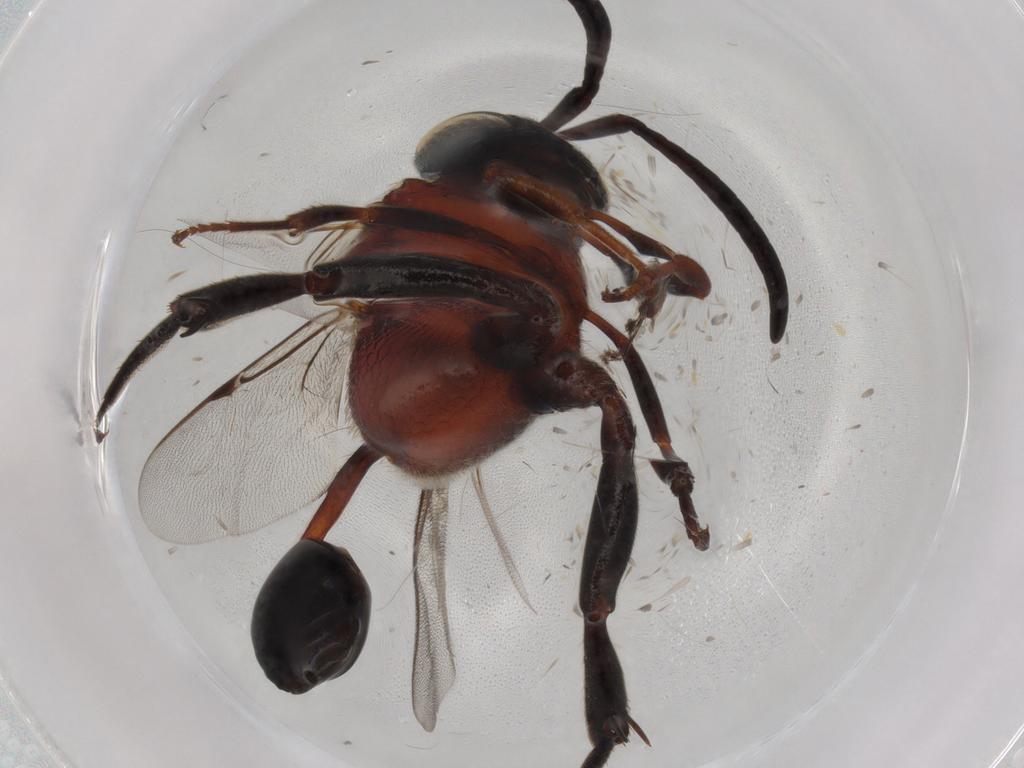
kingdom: Animalia
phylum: Arthropoda
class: Insecta
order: Hymenoptera
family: Evaniidae
